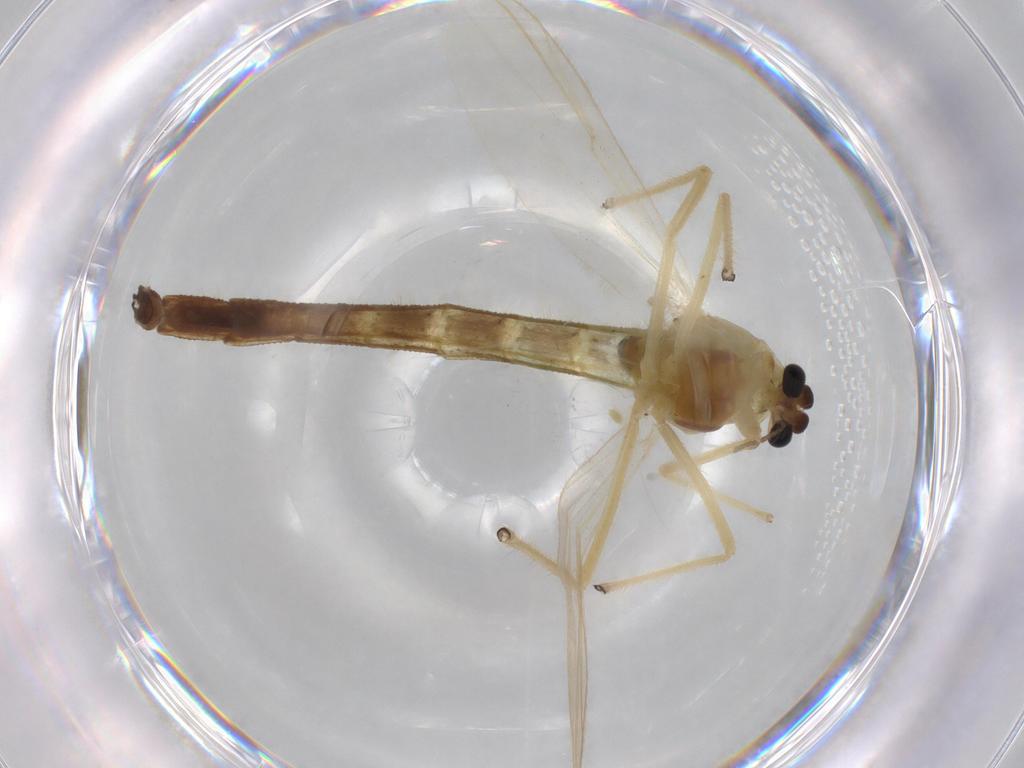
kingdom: Animalia
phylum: Arthropoda
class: Insecta
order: Diptera
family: Chironomidae
